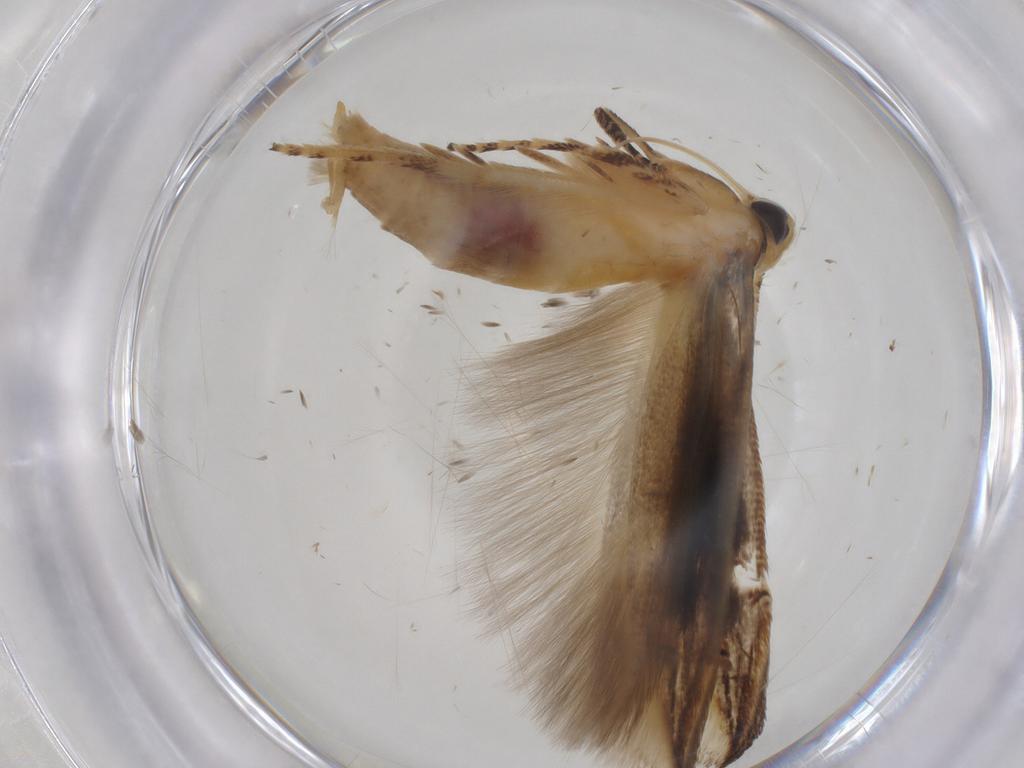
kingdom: Animalia
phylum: Arthropoda
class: Insecta
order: Lepidoptera
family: Momphidae
